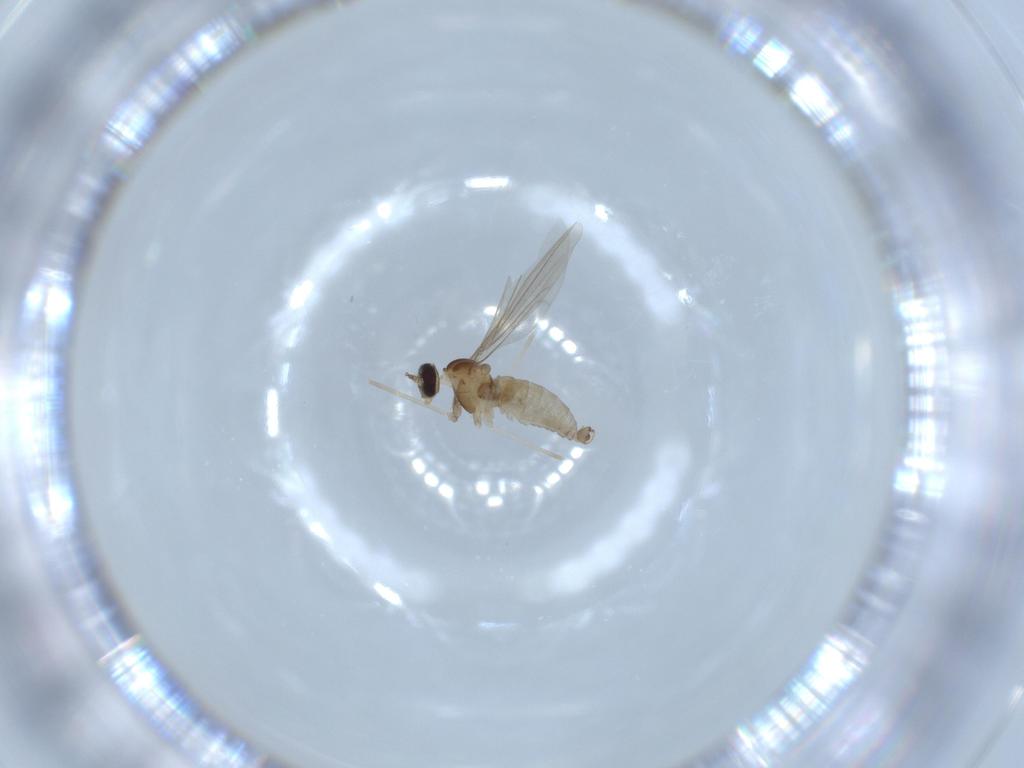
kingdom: Animalia
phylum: Arthropoda
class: Insecta
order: Diptera
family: Cecidomyiidae
